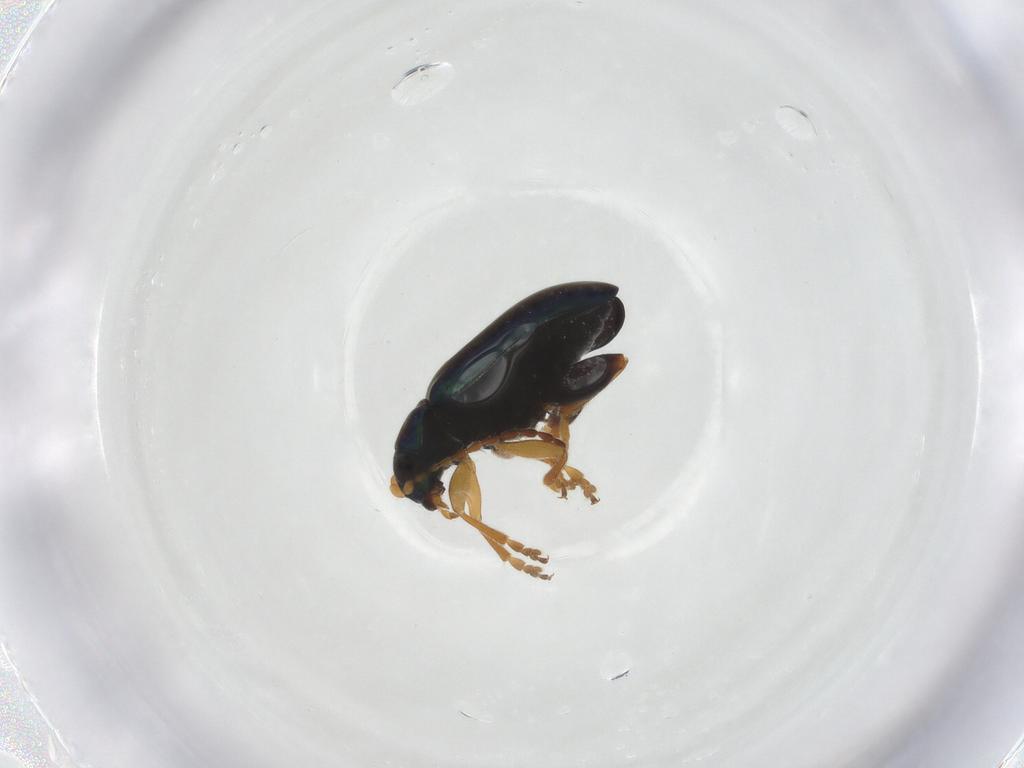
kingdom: Animalia
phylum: Arthropoda
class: Insecta
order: Coleoptera
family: Chrysomelidae
